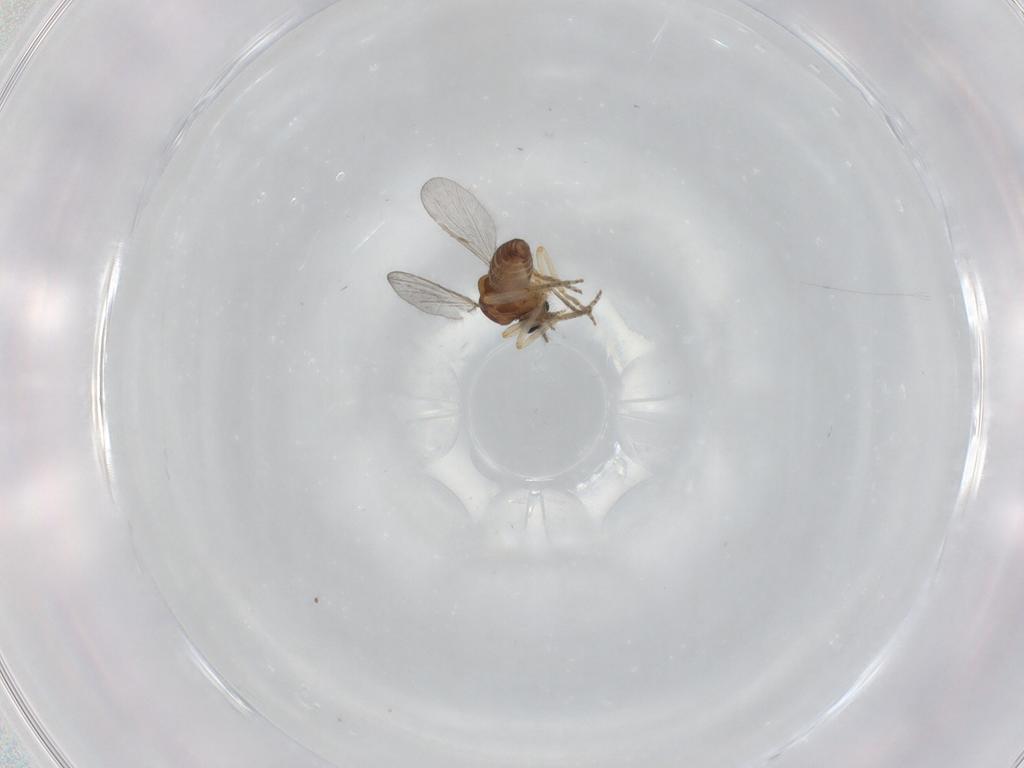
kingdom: Animalia
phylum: Arthropoda
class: Insecta
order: Diptera
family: Ceratopogonidae
